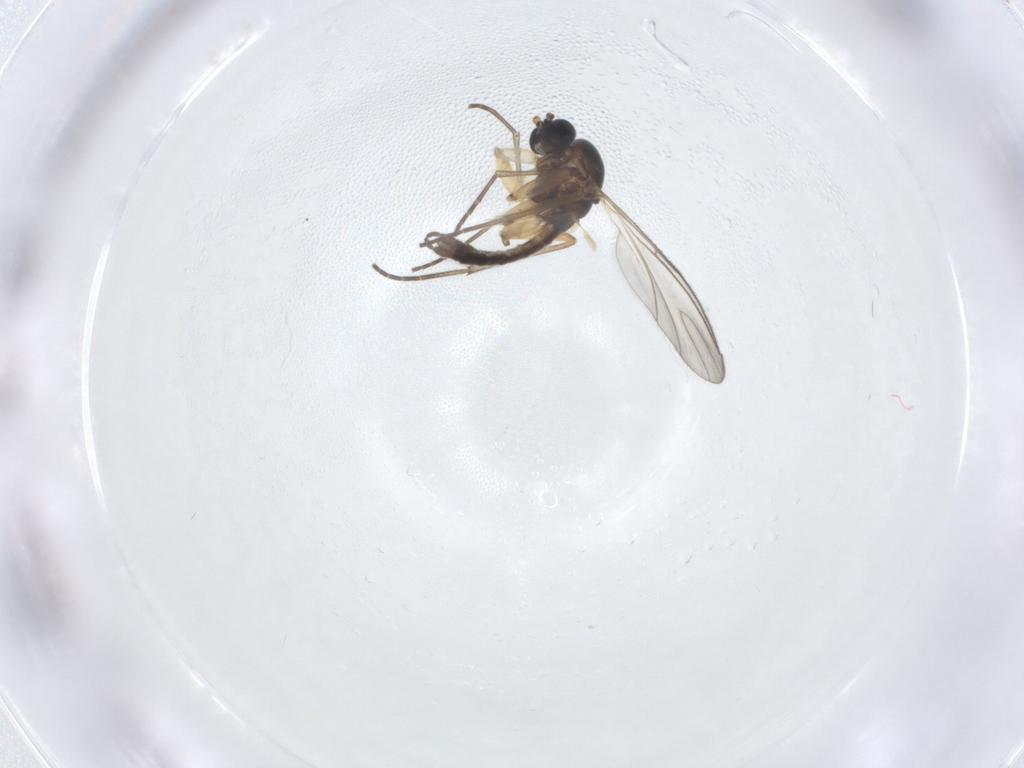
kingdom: Animalia
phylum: Arthropoda
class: Insecta
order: Diptera
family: Sciaridae
